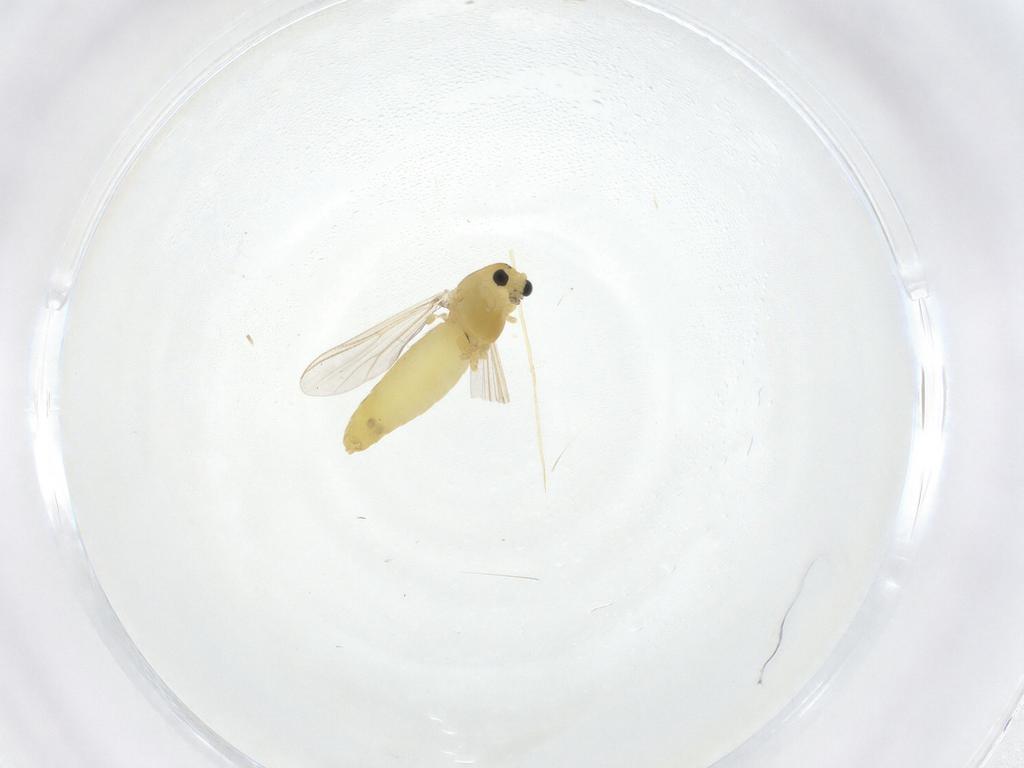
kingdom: Animalia
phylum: Arthropoda
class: Insecta
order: Diptera
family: Chironomidae
